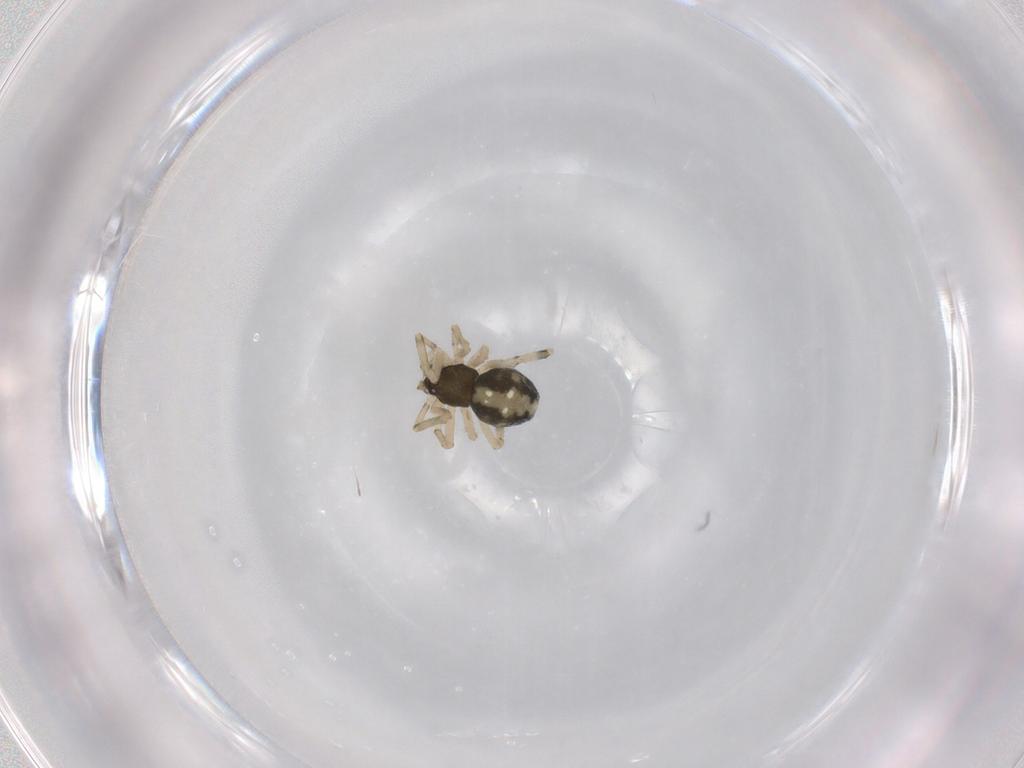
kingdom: Animalia
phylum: Arthropoda
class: Arachnida
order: Araneae
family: Theridiidae
